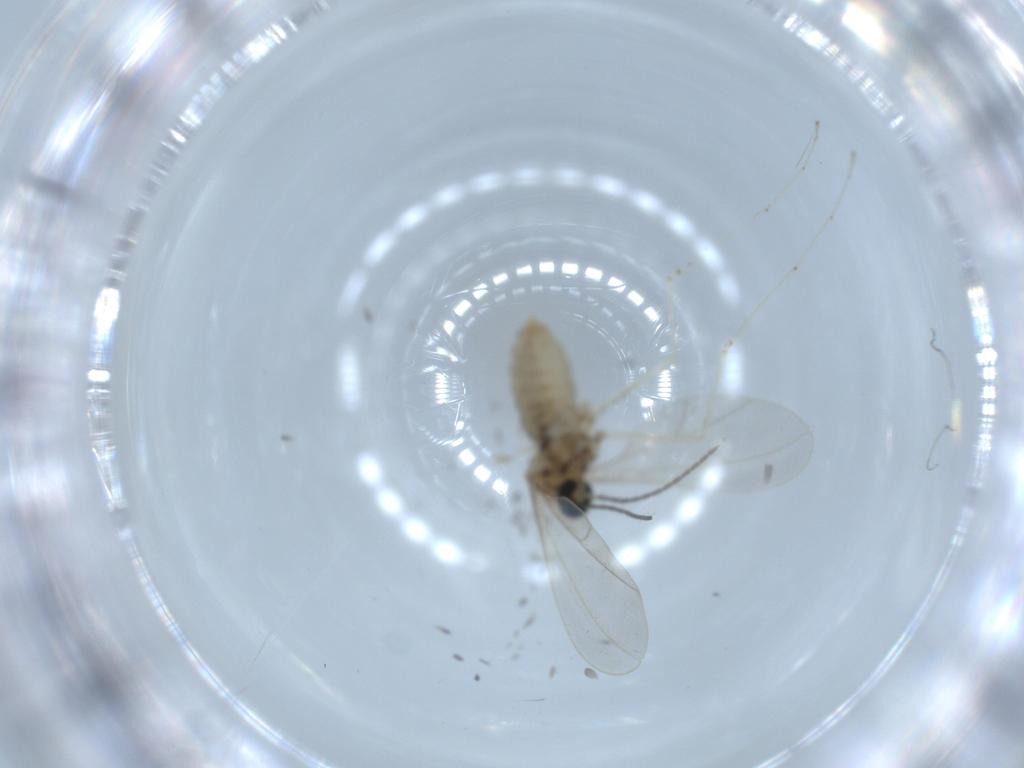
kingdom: Animalia
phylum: Arthropoda
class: Insecta
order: Diptera
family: Cecidomyiidae
